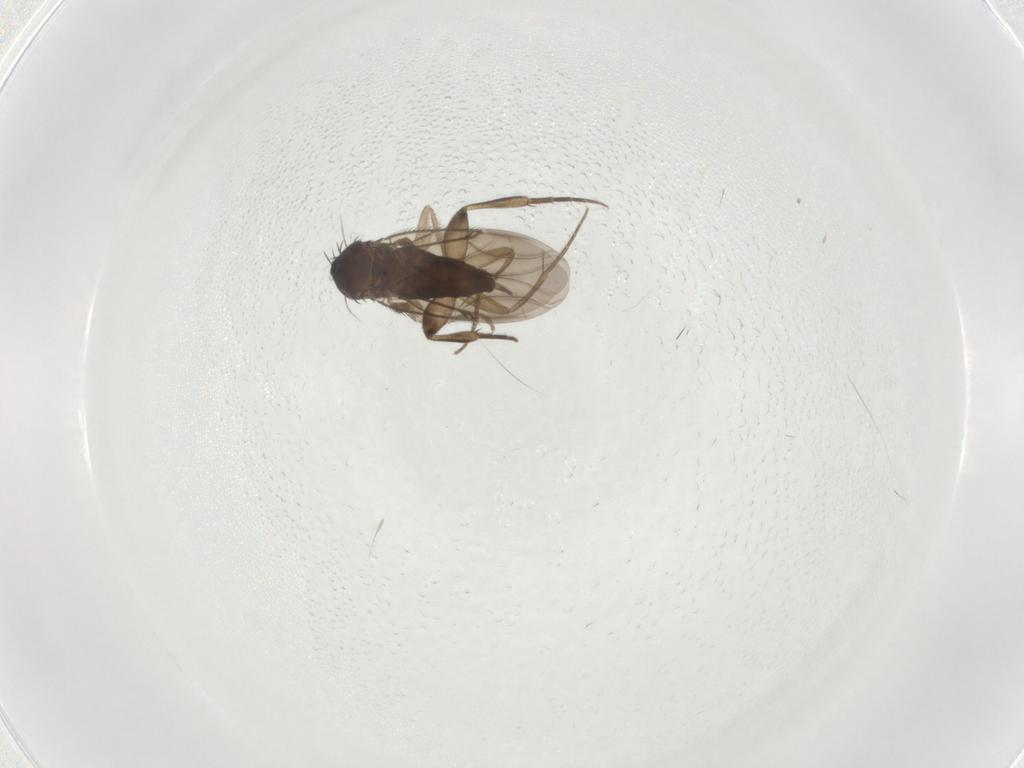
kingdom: Animalia
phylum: Arthropoda
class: Insecta
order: Diptera
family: Phoridae
